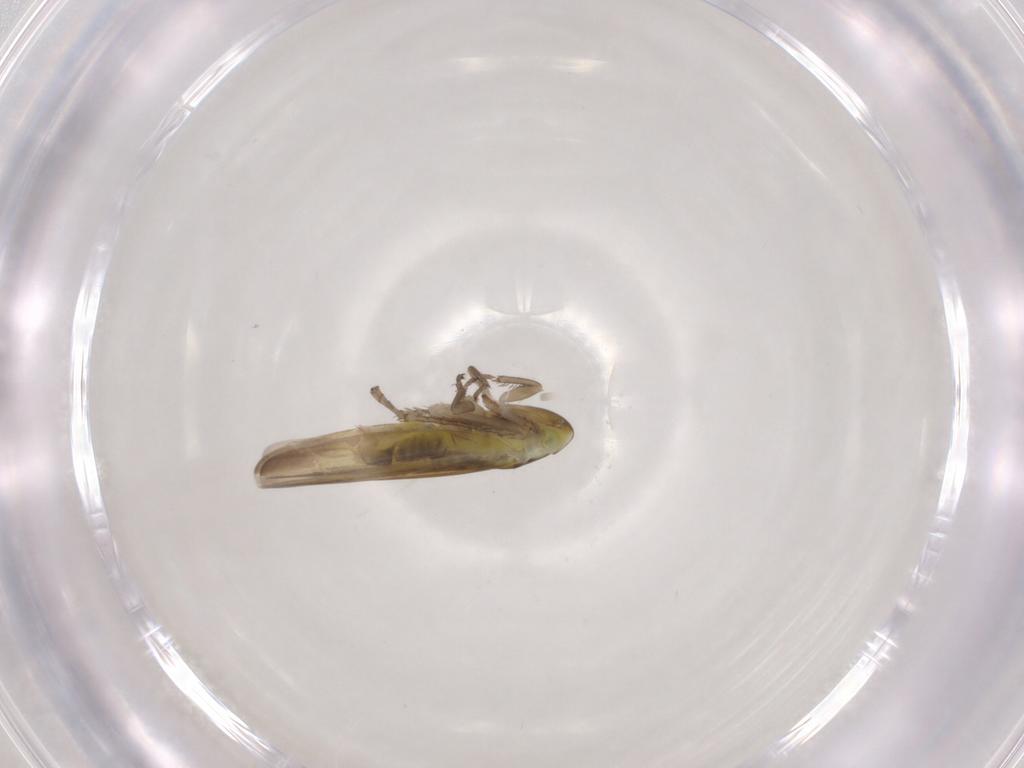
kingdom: Animalia
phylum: Arthropoda
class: Insecta
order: Hemiptera
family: Cicadellidae
